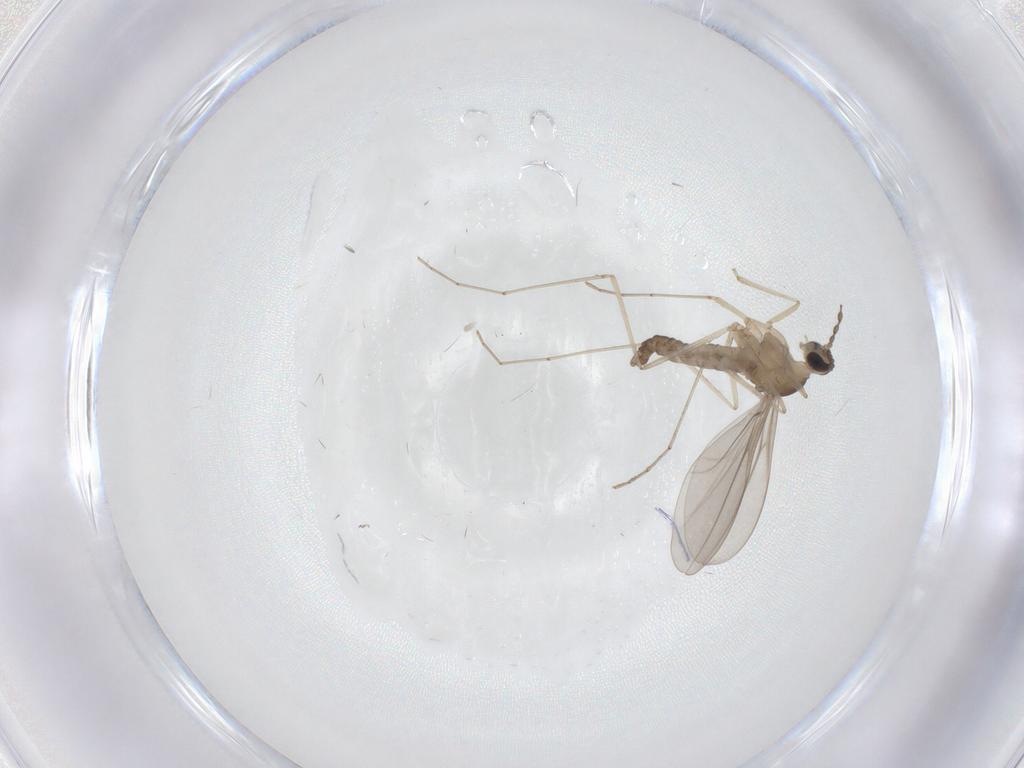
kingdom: Animalia
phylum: Arthropoda
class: Insecta
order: Diptera
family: Cecidomyiidae
